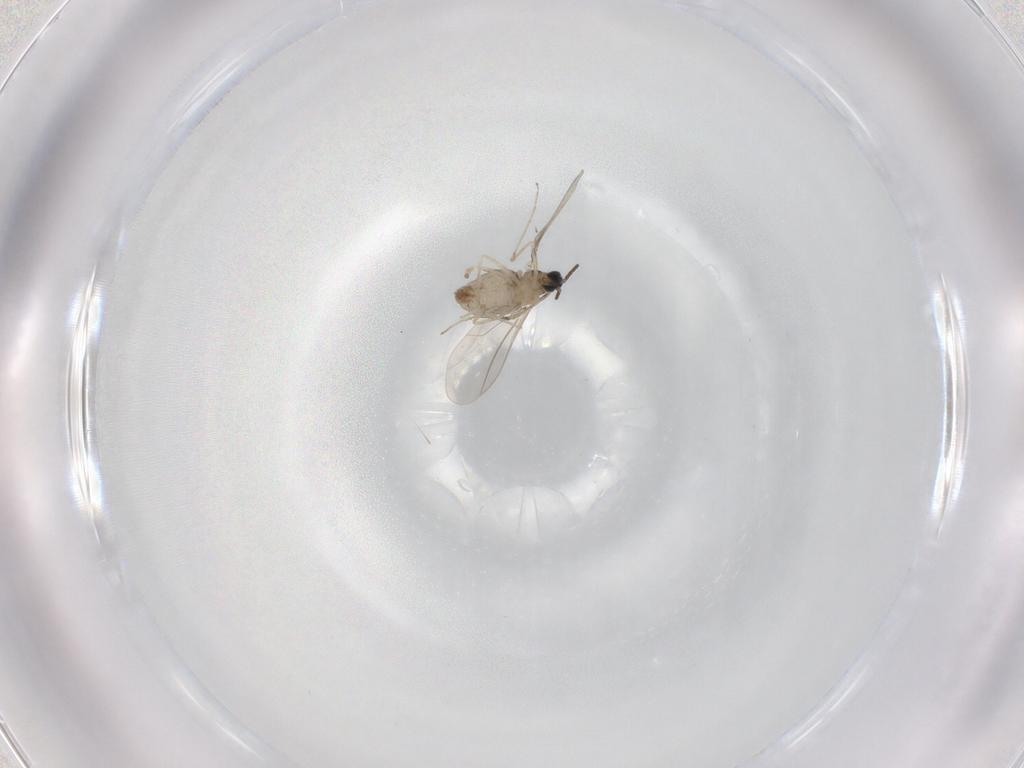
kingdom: Animalia
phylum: Arthropoda
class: Insecta
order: Diptera
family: Cecidomyiidae
